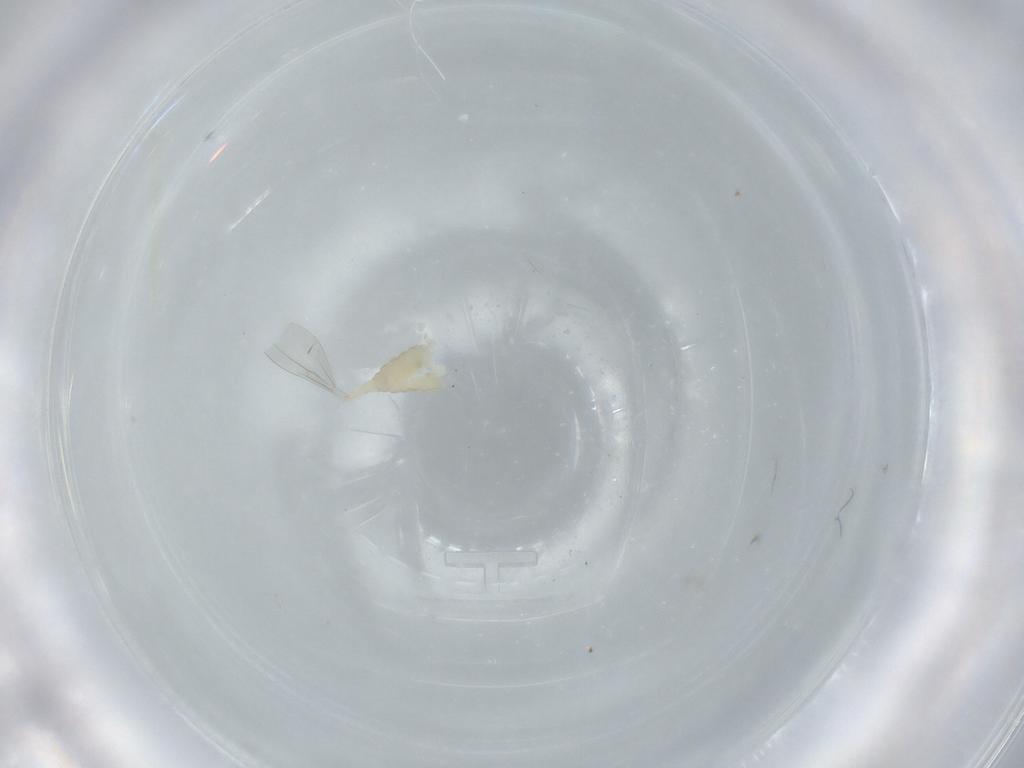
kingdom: Animalia
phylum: Arthropoda
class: Insecta
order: Diptera
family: Cecidomyiidae
